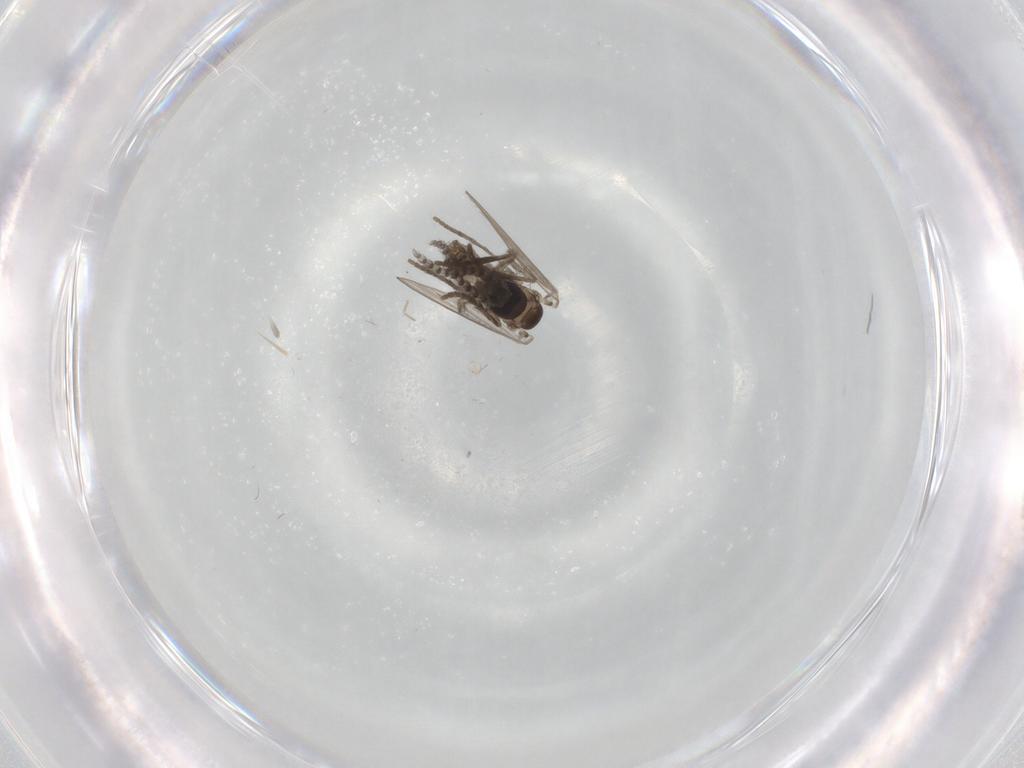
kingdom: Animalia
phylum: Arthropoda
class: Insecta
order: Diptera
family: Psychodidae
